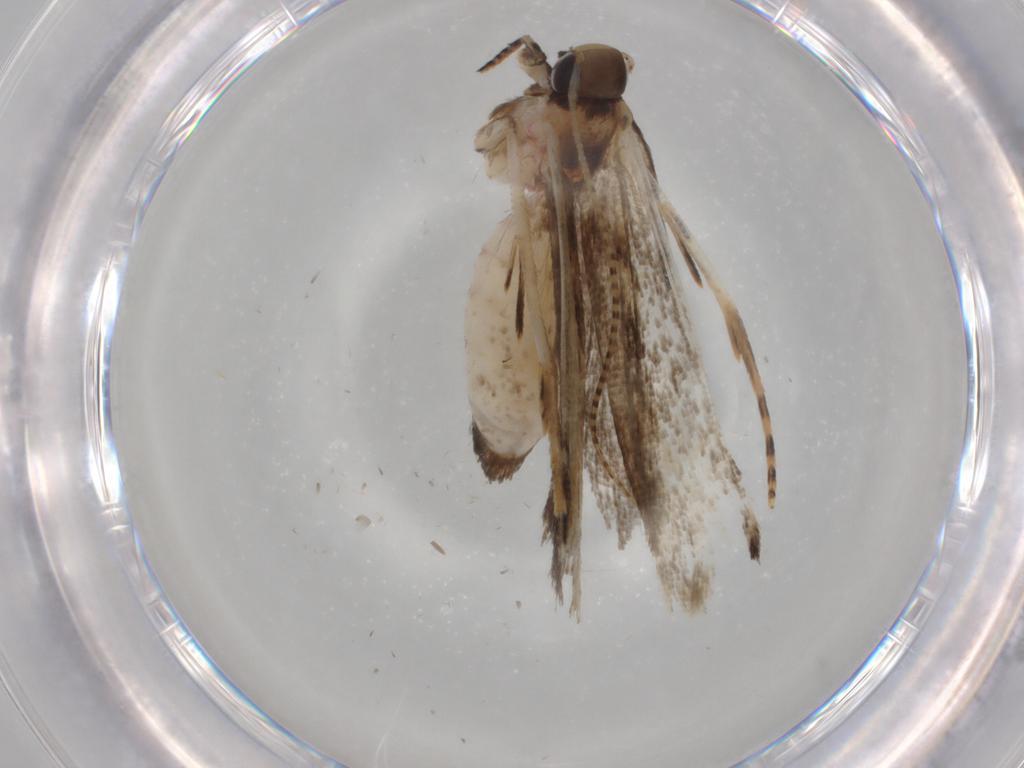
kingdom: Animalia
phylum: Arthropoda
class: Insecta
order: Lepidoptera
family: Gelechiidae
